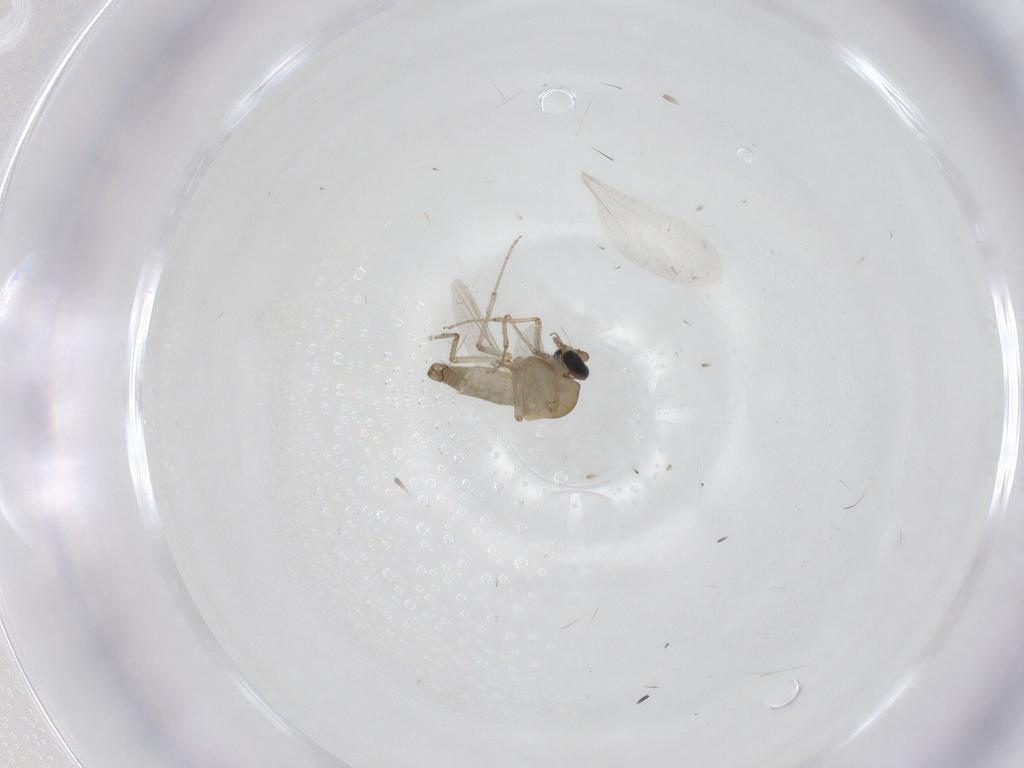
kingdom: Animalia
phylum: Arthropoda
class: Insecta
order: Diptera
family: Cecidomyiidae
